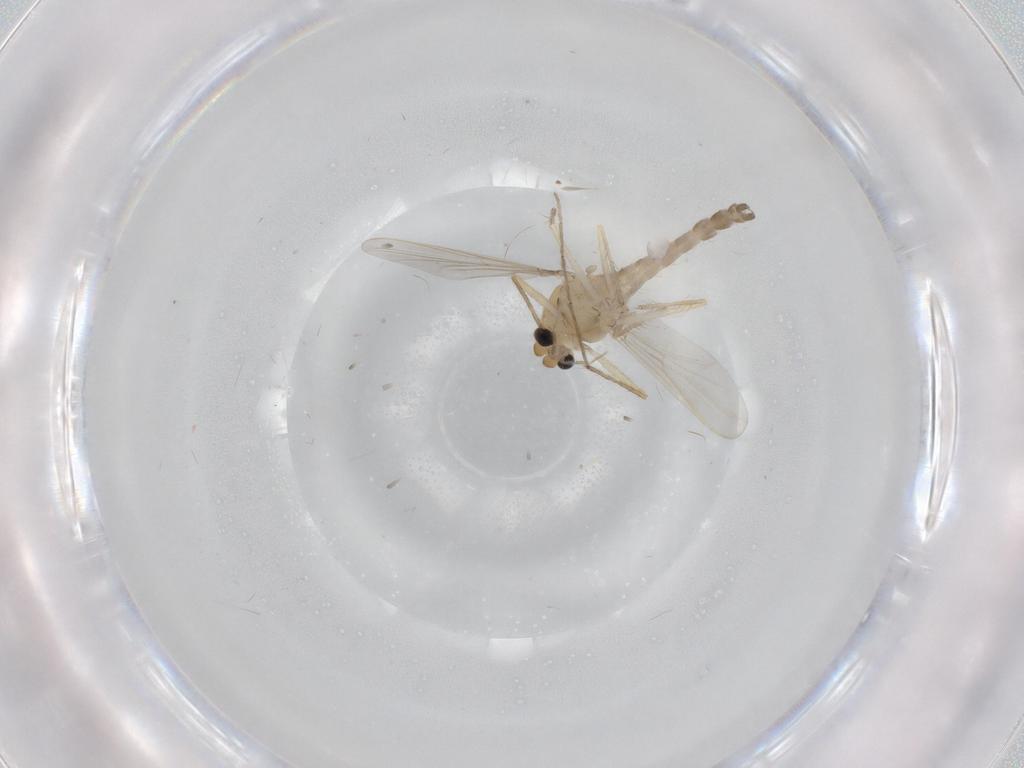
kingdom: Animalia
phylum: Arthropoda
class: Insecta
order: Diptera
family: Chironomidae
